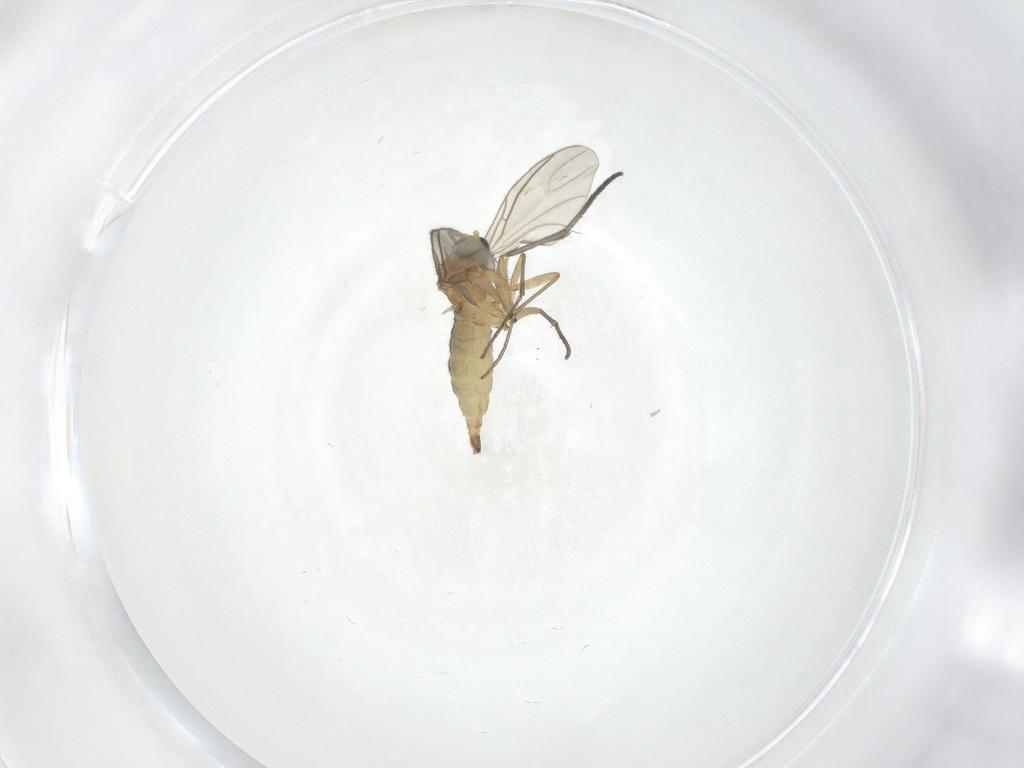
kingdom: Animalia
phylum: Arthropoda
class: Insecta
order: Diptera
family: Sciaridae
